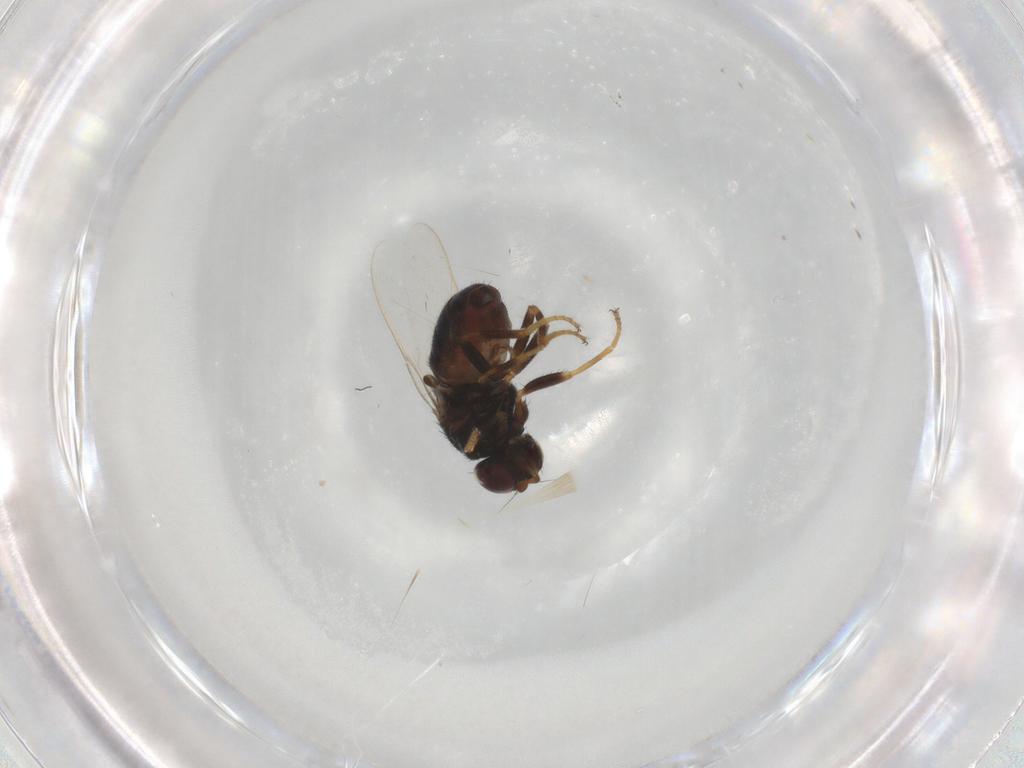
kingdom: Animalia
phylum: Arthropoda
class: Insecta
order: Diptera
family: Chloropidae
